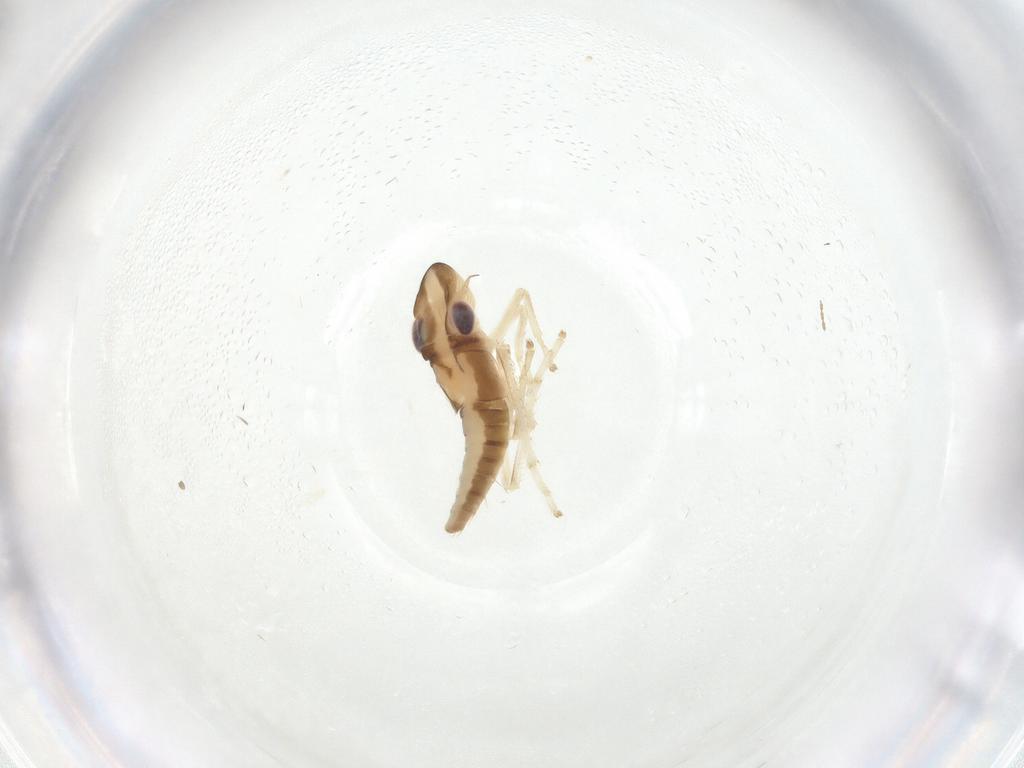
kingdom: Animalia
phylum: Arthropoda
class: Insecta
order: Hemiptera
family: Cicadellidae
